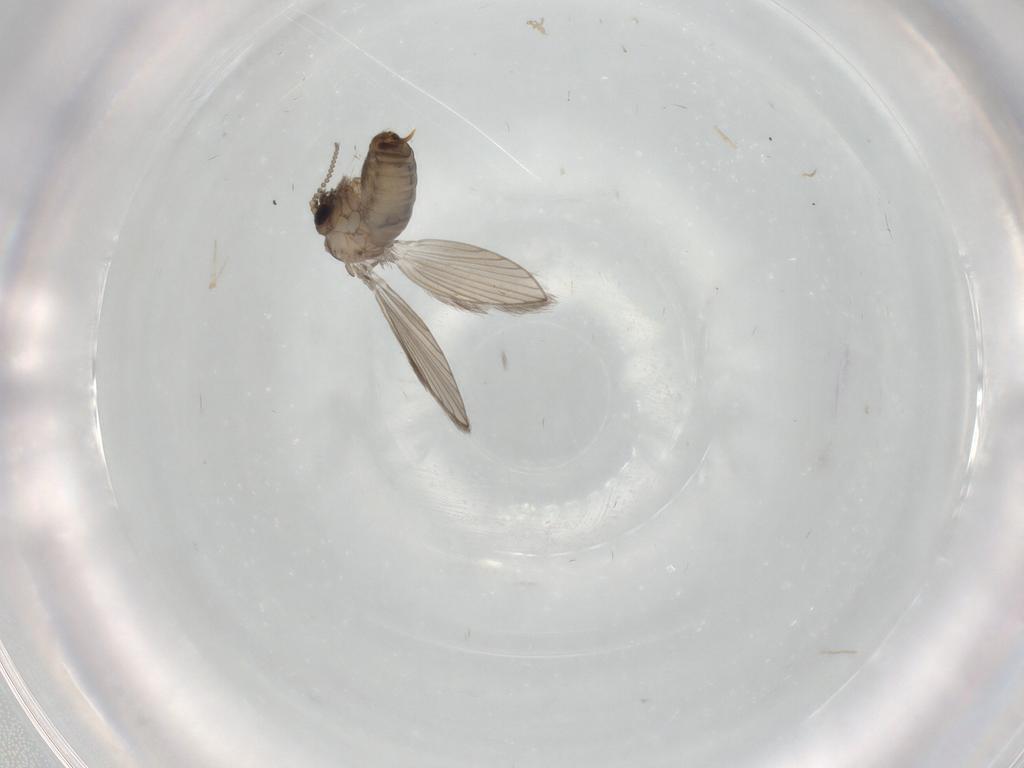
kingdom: Animalia
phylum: Arthropoda
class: Insecta
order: Diptera
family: Psychodidae
